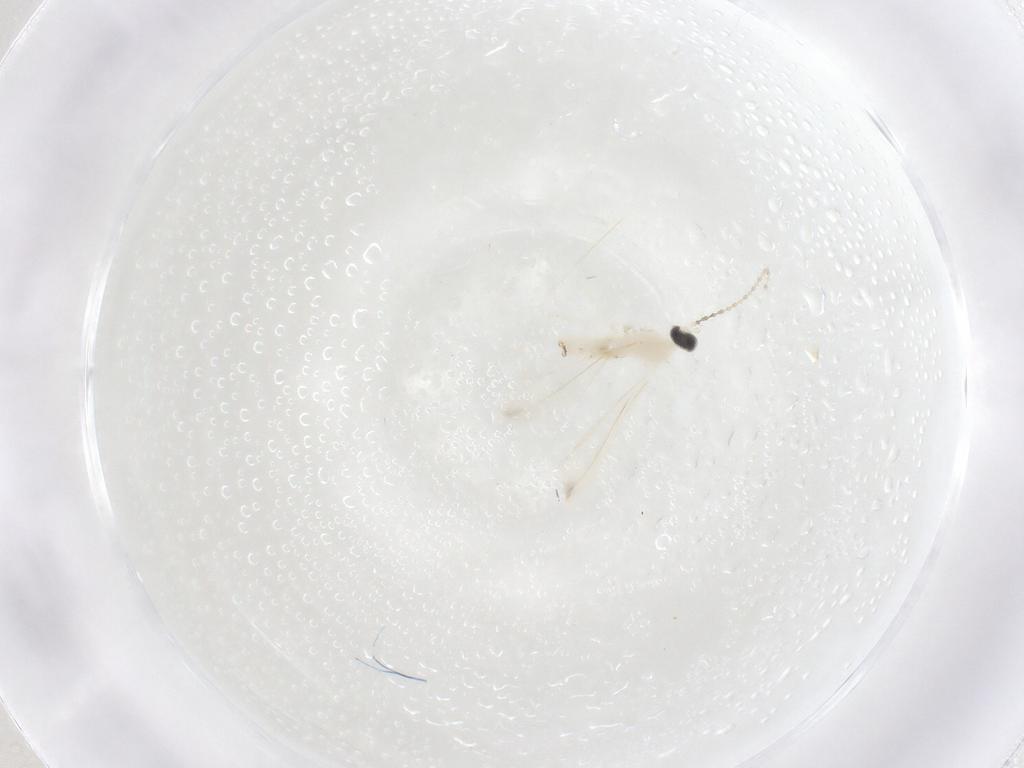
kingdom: Animalia
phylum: Arthropoda
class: Insecta
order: Diptera
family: Cecidomyiidae
